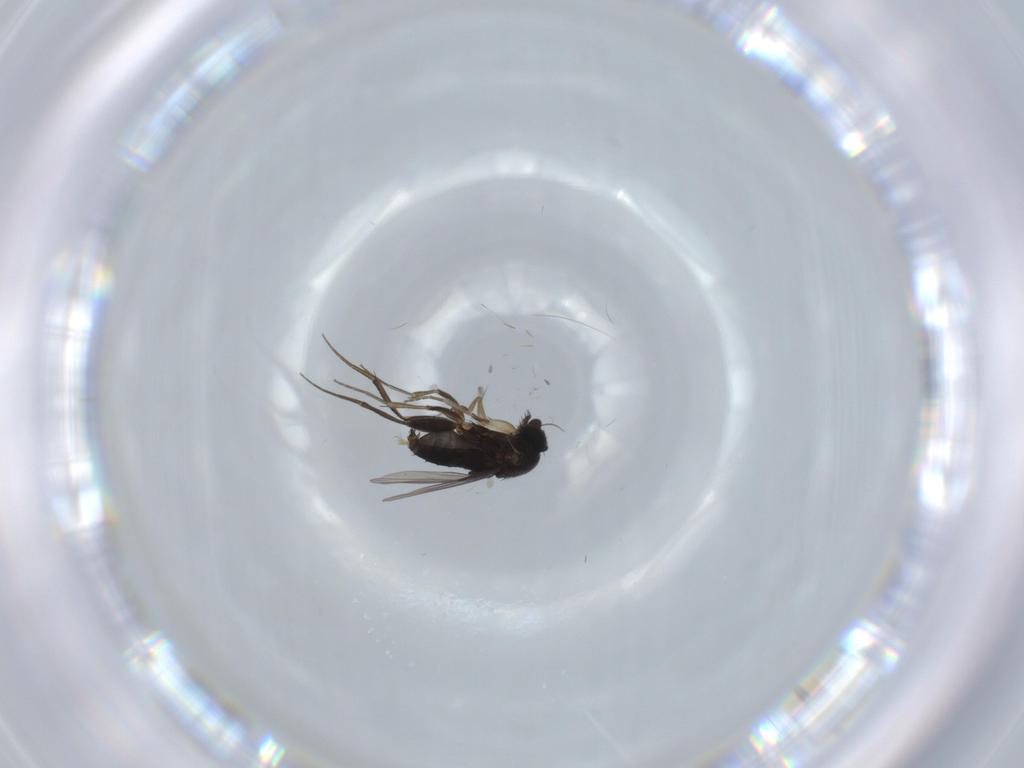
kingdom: Animalia
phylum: Arthropoda
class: Insecta
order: Diptera
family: Phoridae
